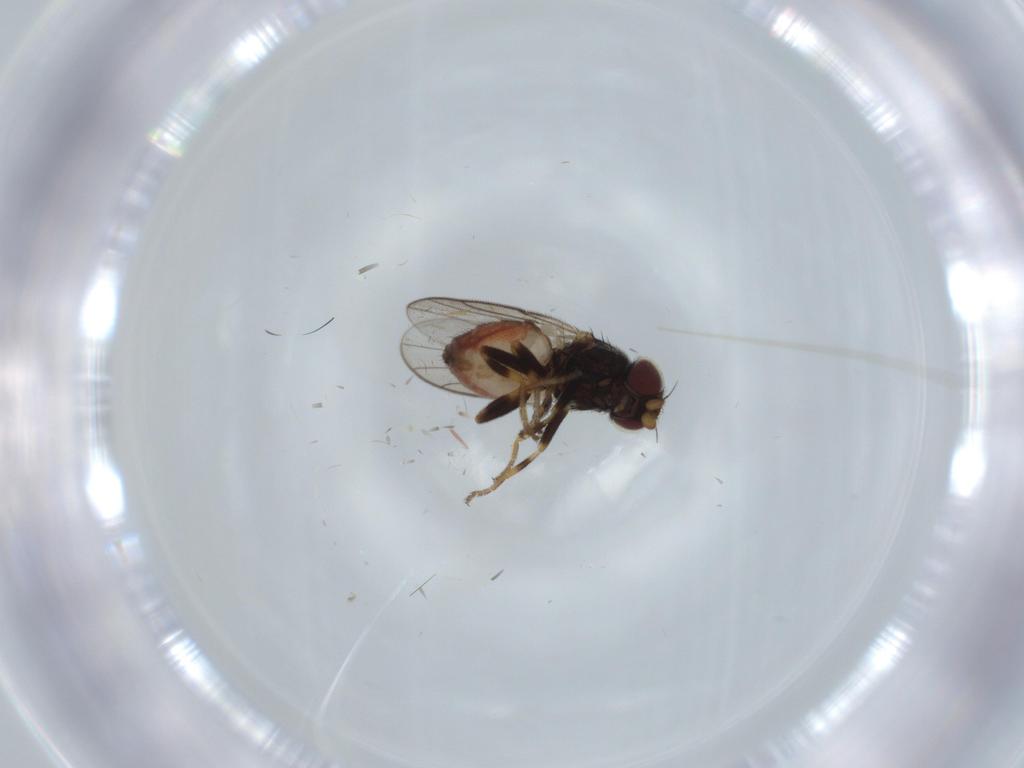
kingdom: Animalia
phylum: Arthropoda
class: Insecta
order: Diptera
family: Chloropidae
